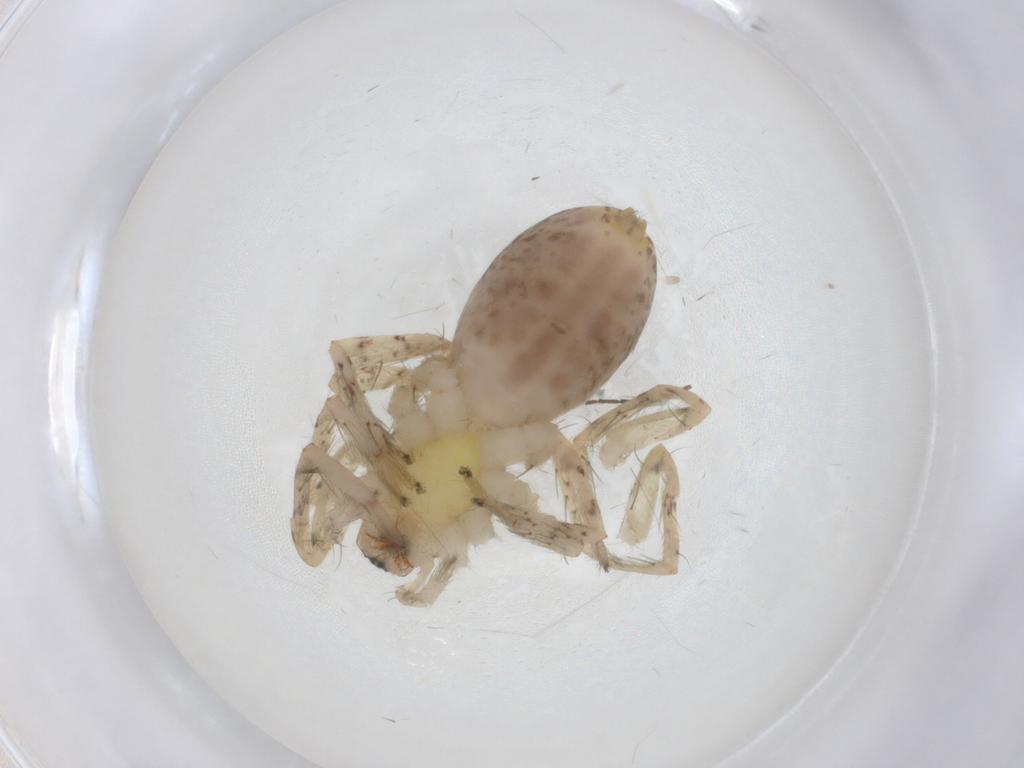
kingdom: Animalia
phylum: Arthropoda
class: Arachnida
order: Araneae
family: Anyphaenidae
